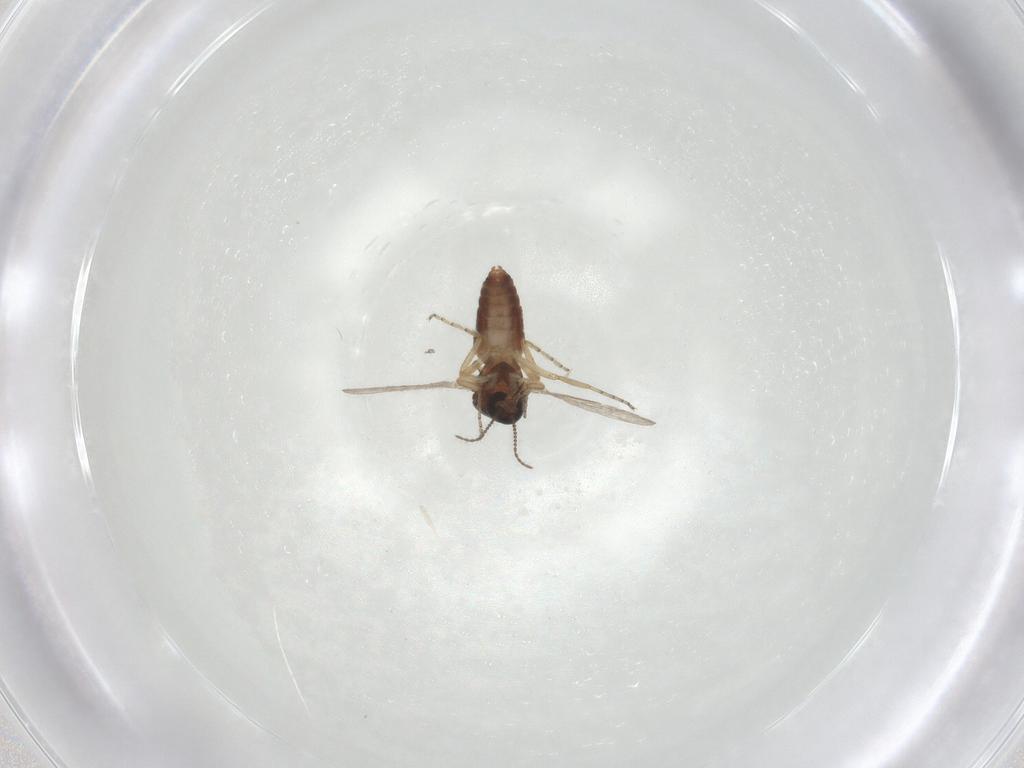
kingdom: Animalia
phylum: Arthropoda
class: Insecta
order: Diptera
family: Ceratopogonidae
